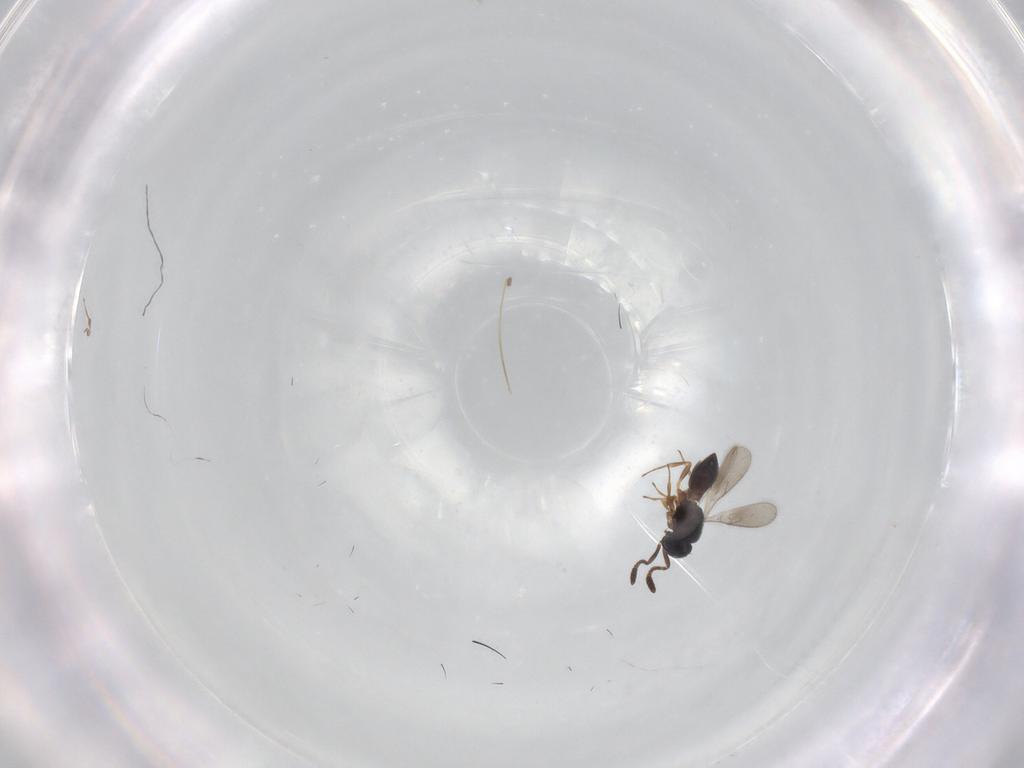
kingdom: Animalia
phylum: Arthropoda
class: Insecta
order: Hymenoptera
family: Scelionidae
